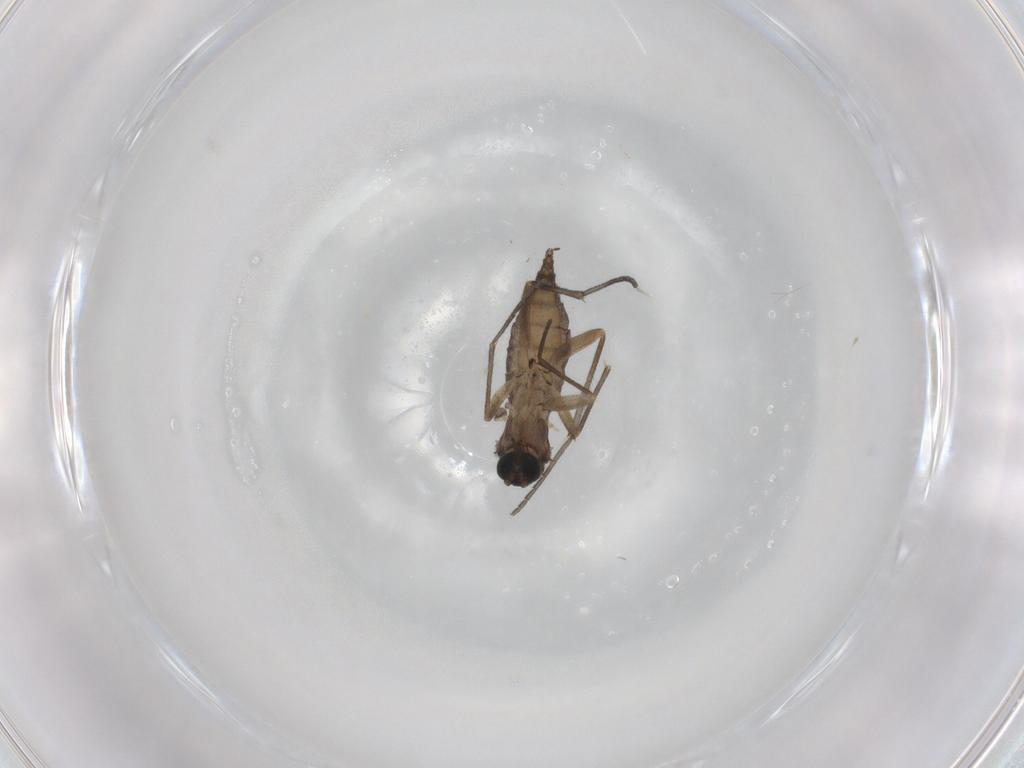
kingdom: Animalia
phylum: Arthropoda
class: Insecta
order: Diptera
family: Sciaridae
